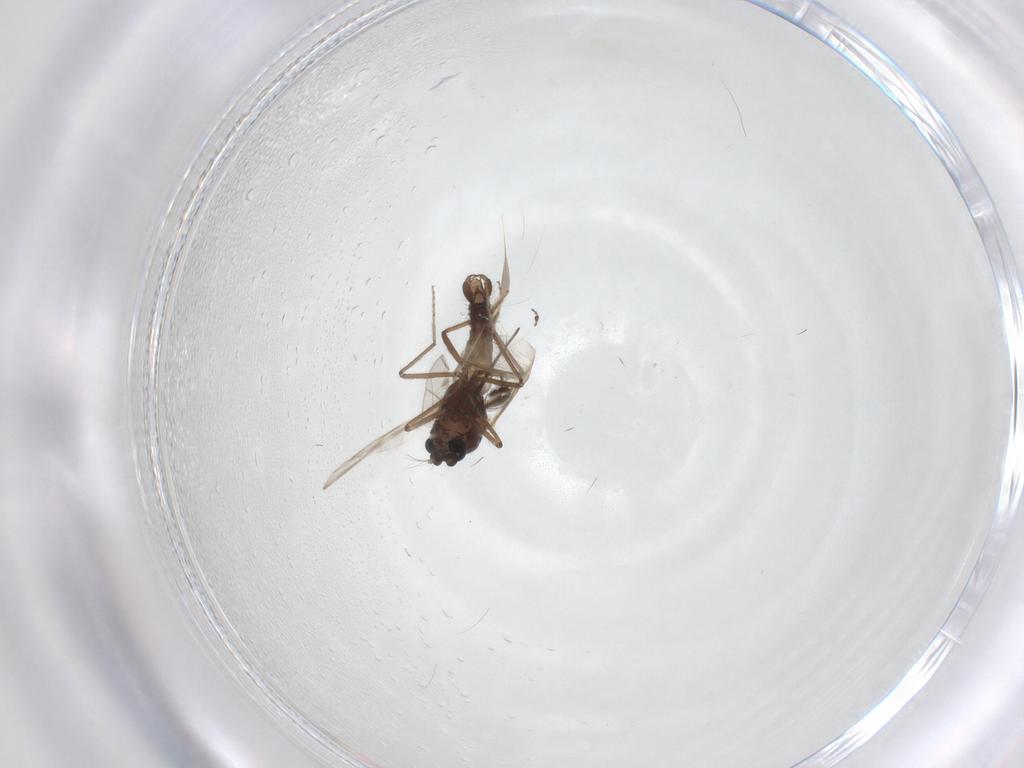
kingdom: Animalia
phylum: Arthropoda
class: Insecta
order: Diptera
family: Ceratopogonidae
